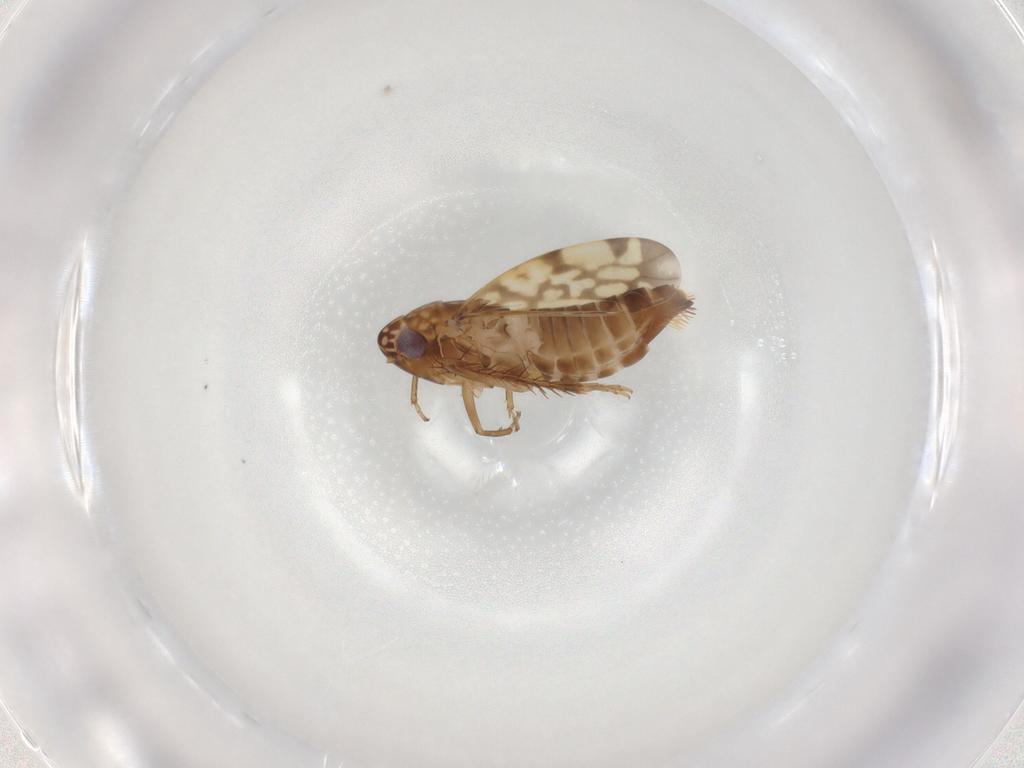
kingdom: Animalia
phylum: Arthropoda
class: Insecta
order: Hemiptera
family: Cicadellidae
